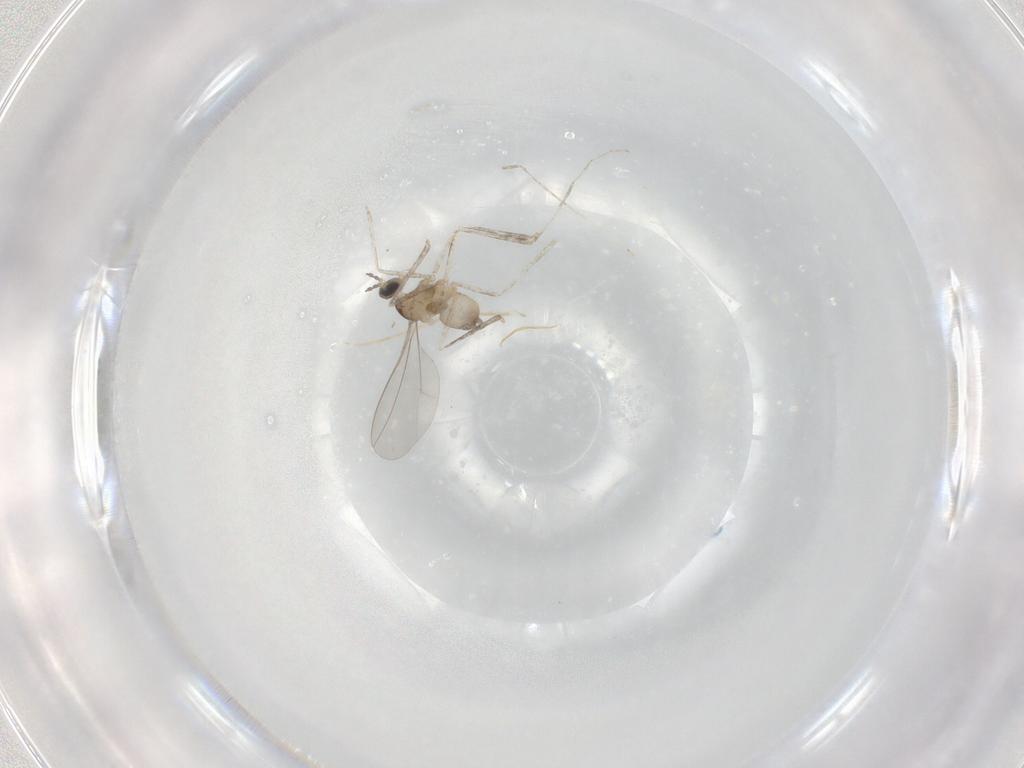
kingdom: Animalia
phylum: Arthropoda
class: Insecta
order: Diptera
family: Cecidomyiidae
